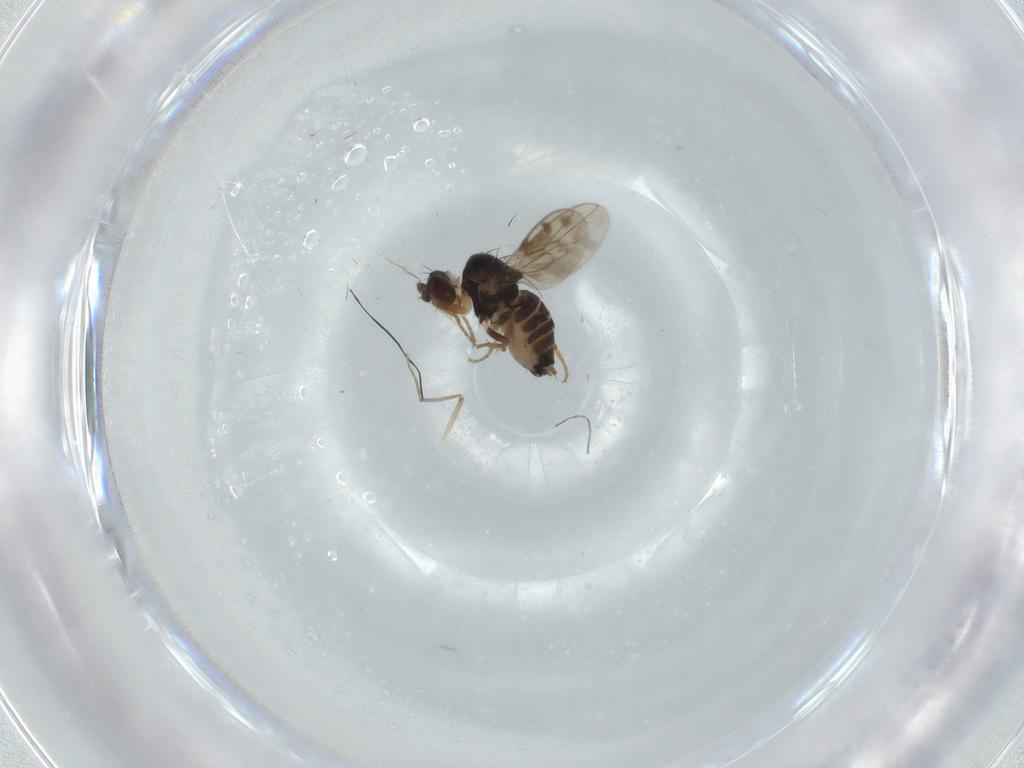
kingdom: Animalia
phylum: Arthropoda
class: Insecta
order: Diptera
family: Sphaeroceridae
